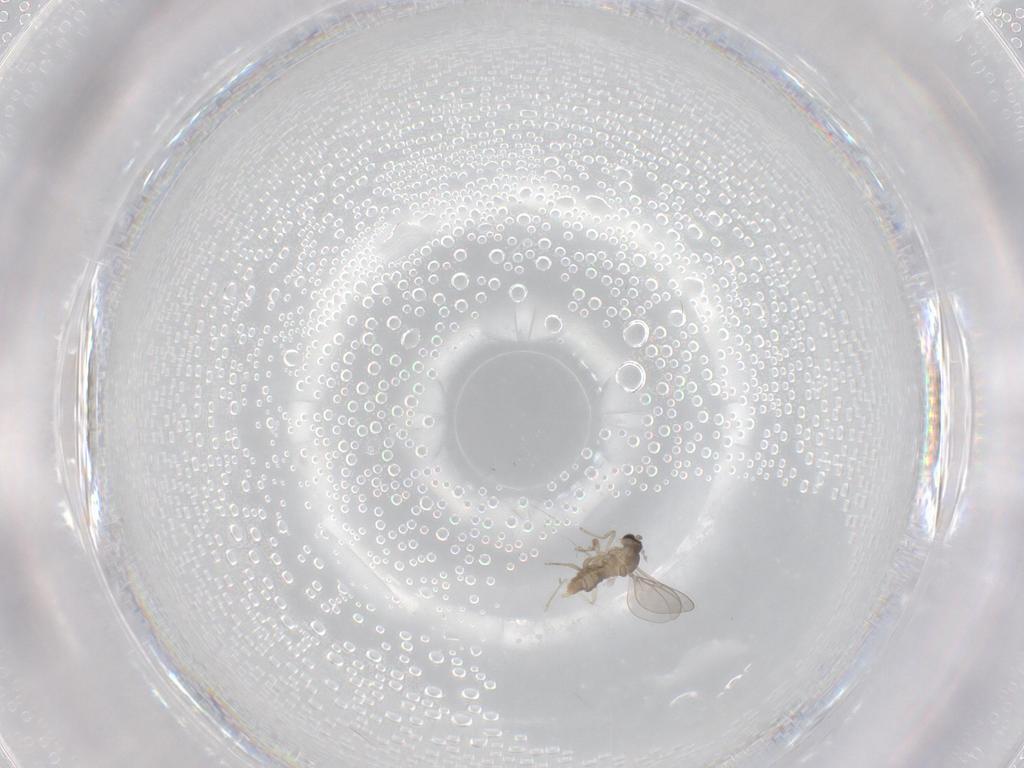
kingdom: Animalia
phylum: Arthropoda
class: Insecta
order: Diptera
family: Cecidomyiidae
